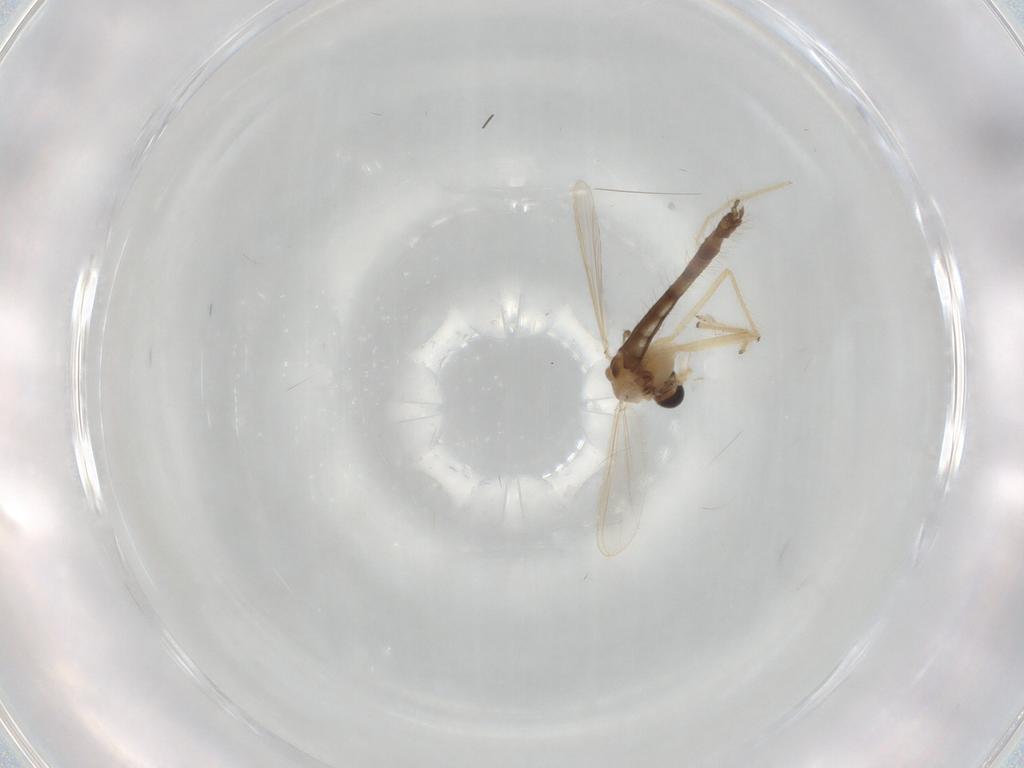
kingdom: Animalia
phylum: Arthropoda
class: Insecta
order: Diptera
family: Chironomidae
